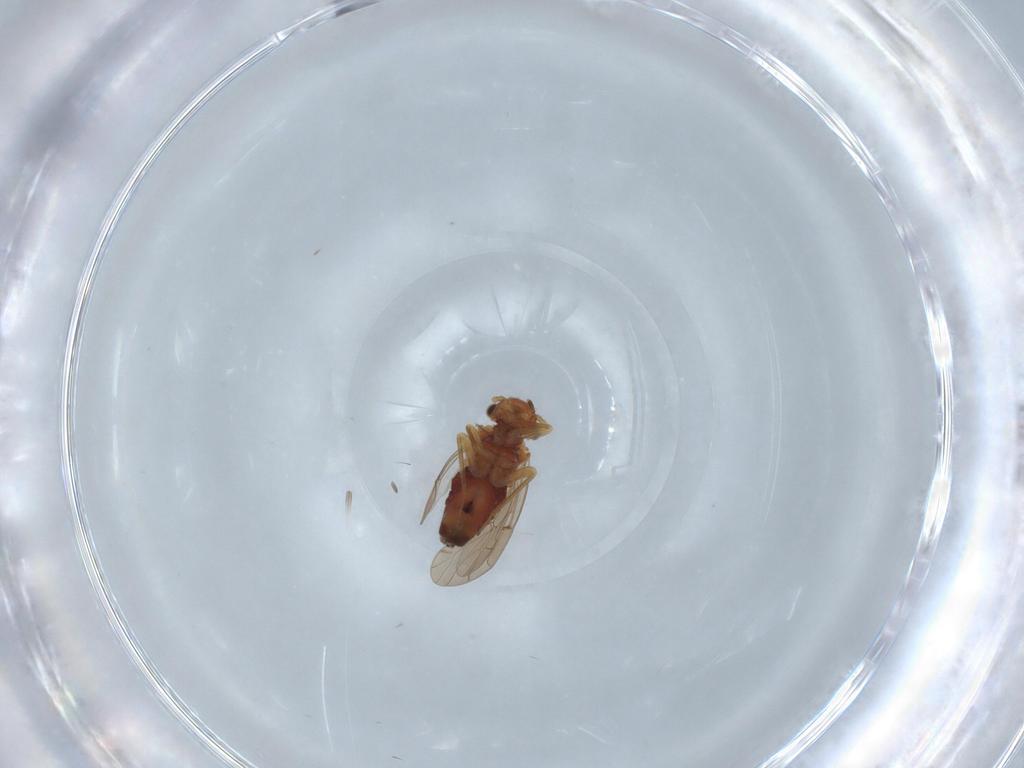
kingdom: Animalia
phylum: Arthropoda
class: Insecta
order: Psocodea
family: Ectopsocidae
